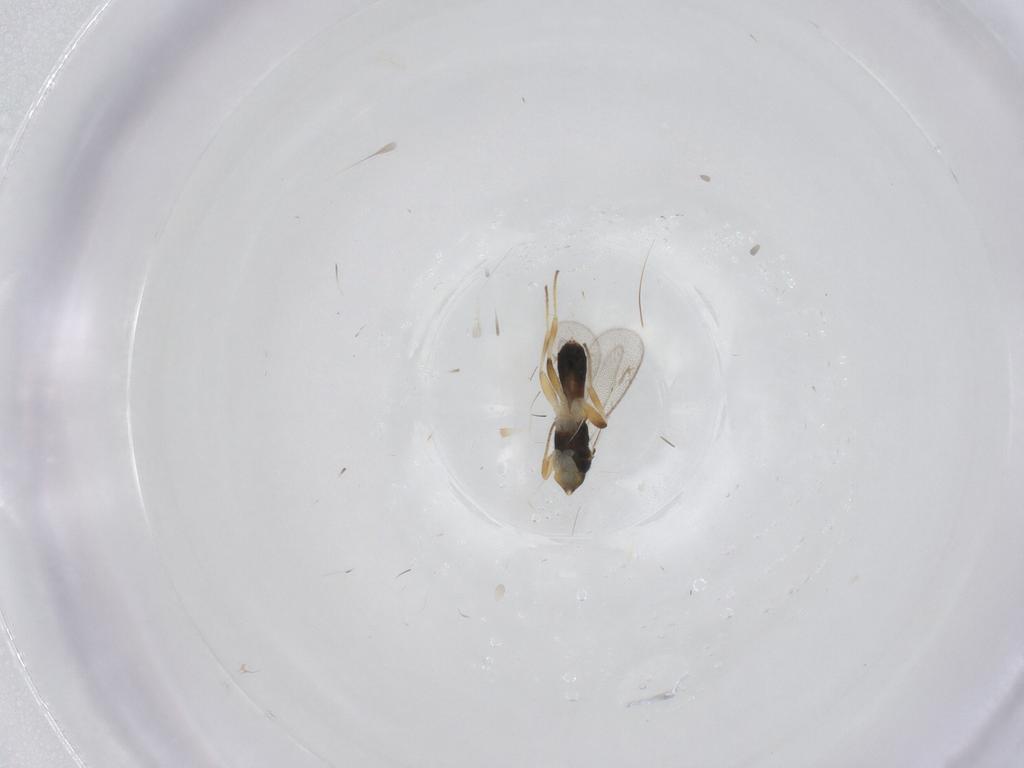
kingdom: Animalia
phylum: Arthropoda
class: Insecta
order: Hymenoptera
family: Eupelmidae
